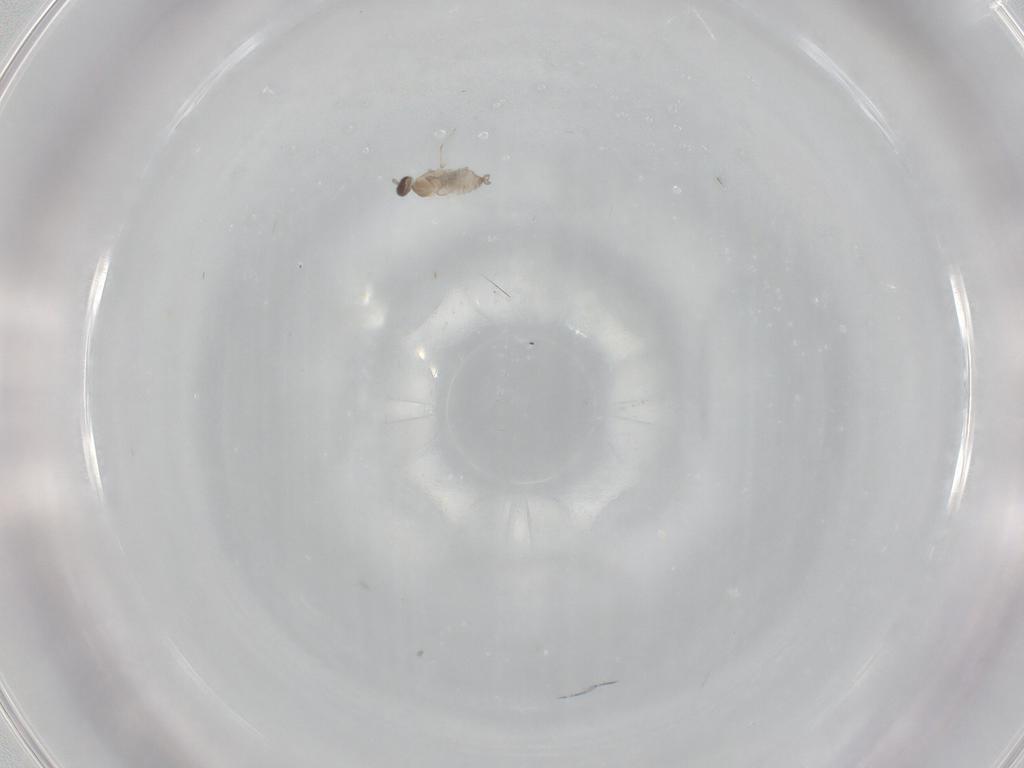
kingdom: Animalia
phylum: Arthropoda
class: Insecta
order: Diptera
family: Cecidomyiidae
